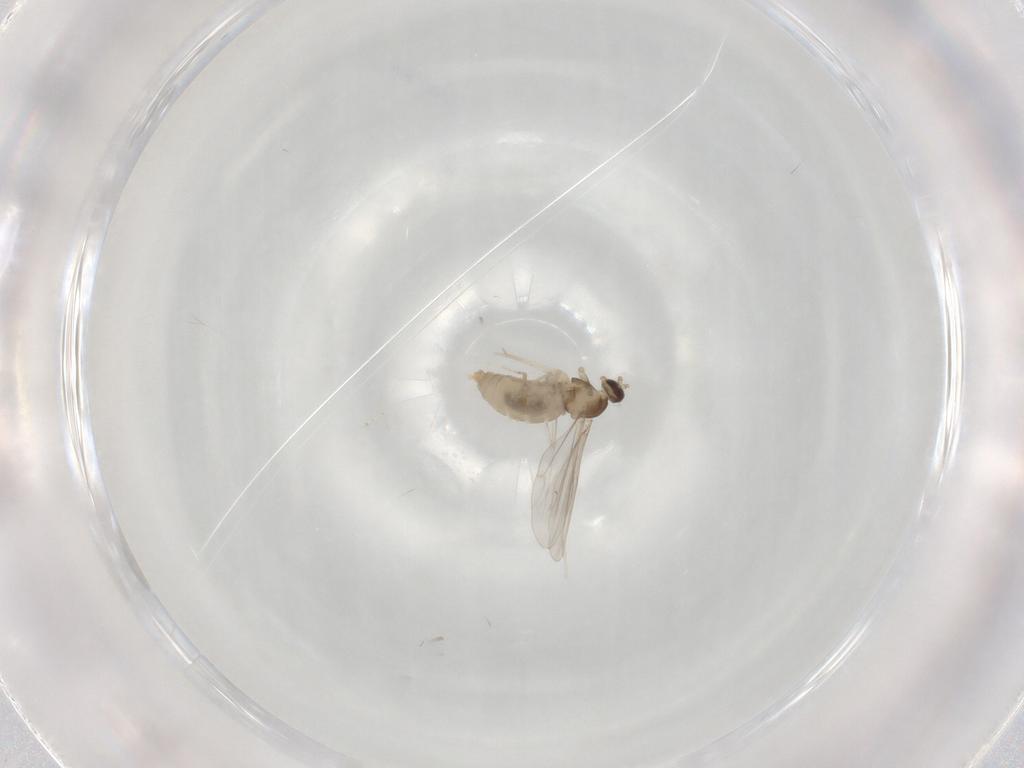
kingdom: Animalia
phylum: Arthropoda
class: Insecta
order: Diptera
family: Cecidomyiidae
